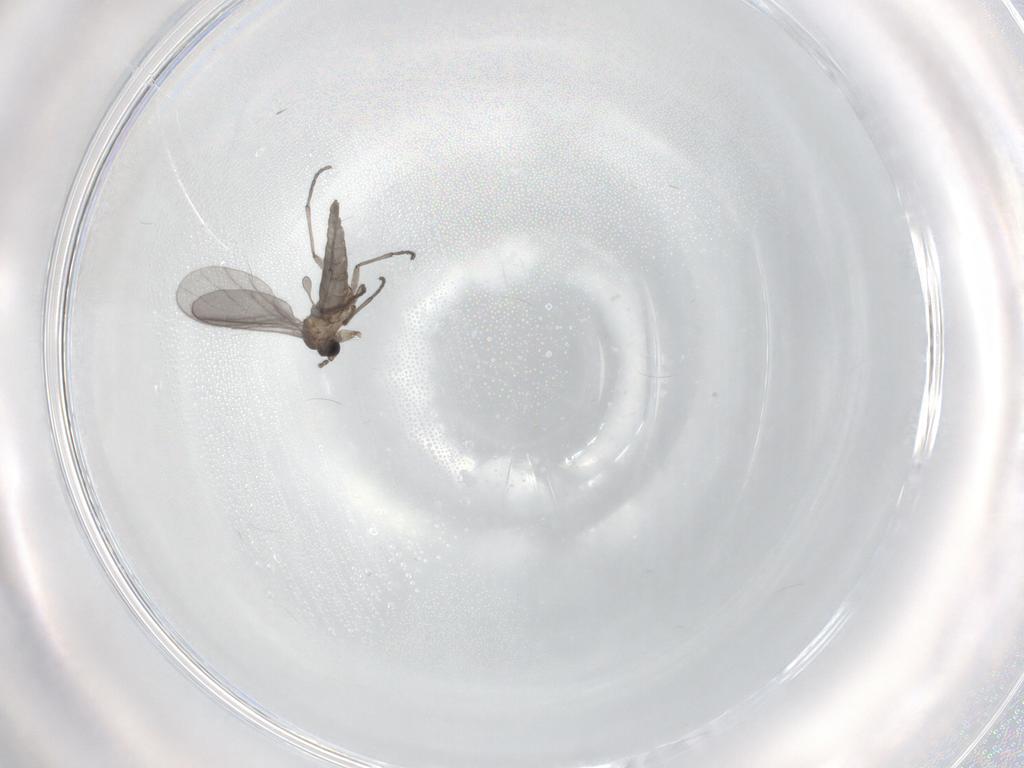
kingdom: Animalia
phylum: Arthropoda
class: Insecta
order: Diptera
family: Sciaridae
